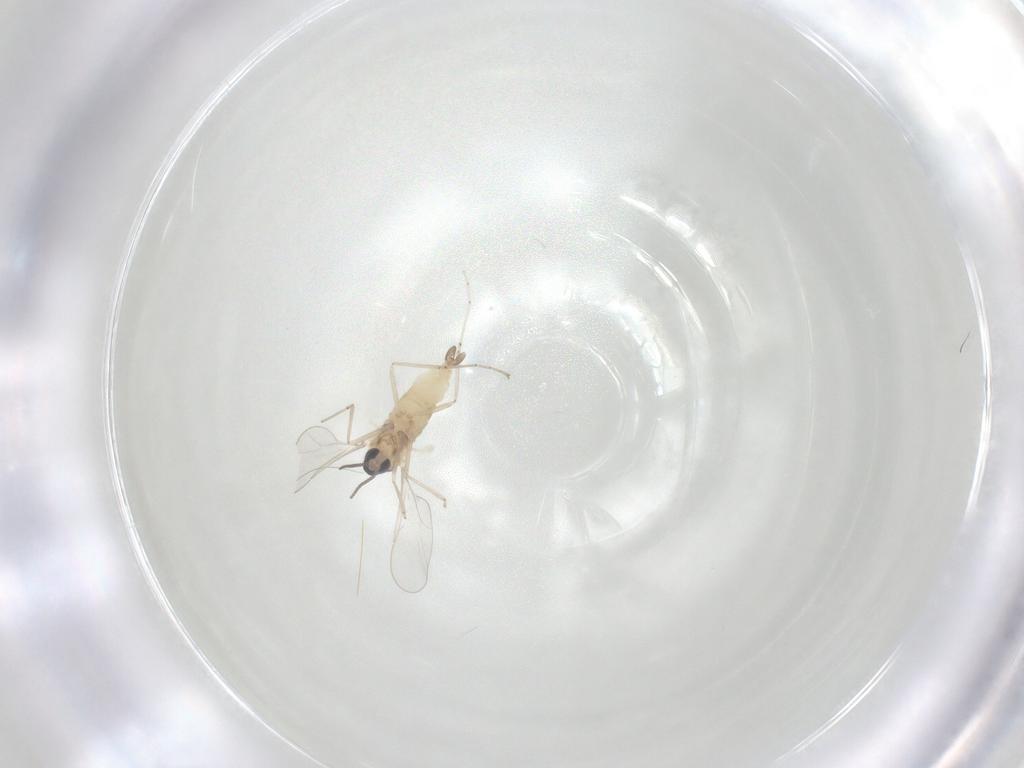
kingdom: Animalia
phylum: Arthropoda
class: Insecta
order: Diptera
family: Cecidomyiidae
